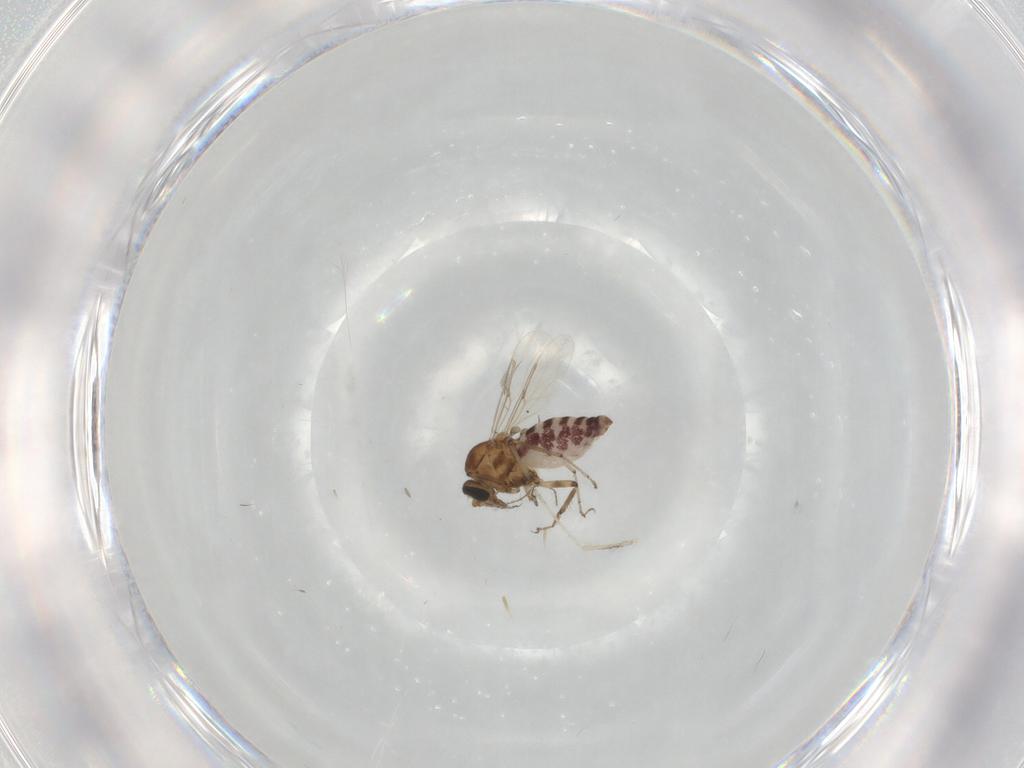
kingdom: Animalia
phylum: Arthropoda
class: Insecta
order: Diptera
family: Ceratopogonidae
